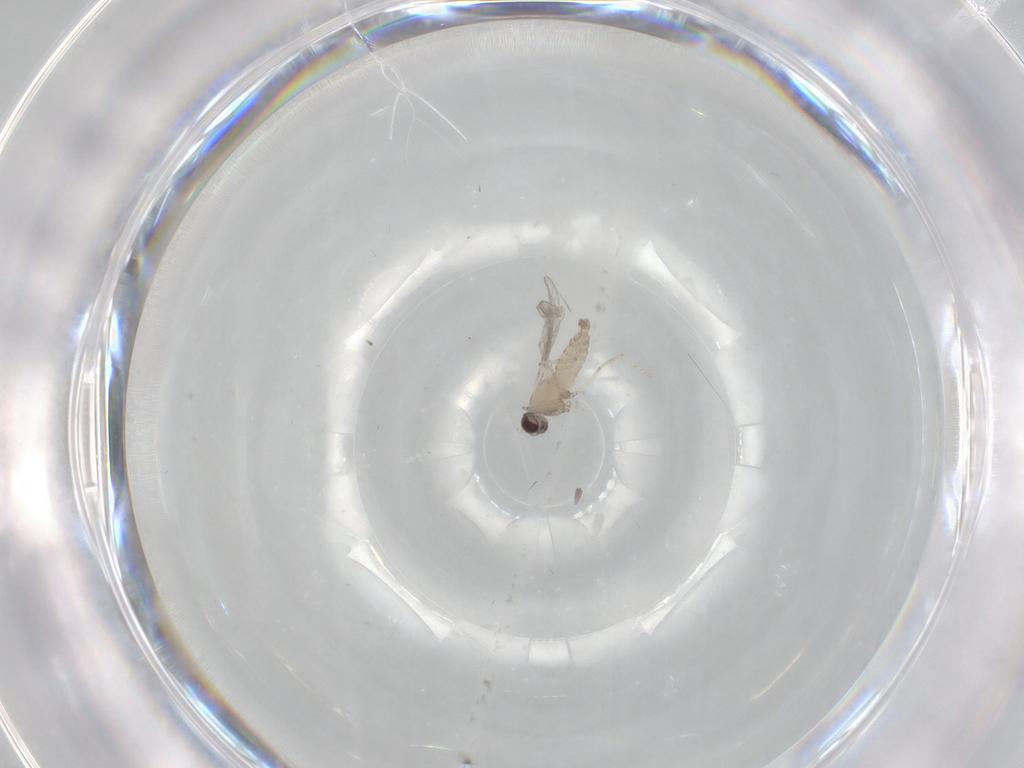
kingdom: Animalia
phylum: Arthropoda
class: Insecta
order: Diptera
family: Cecidomyiidae
